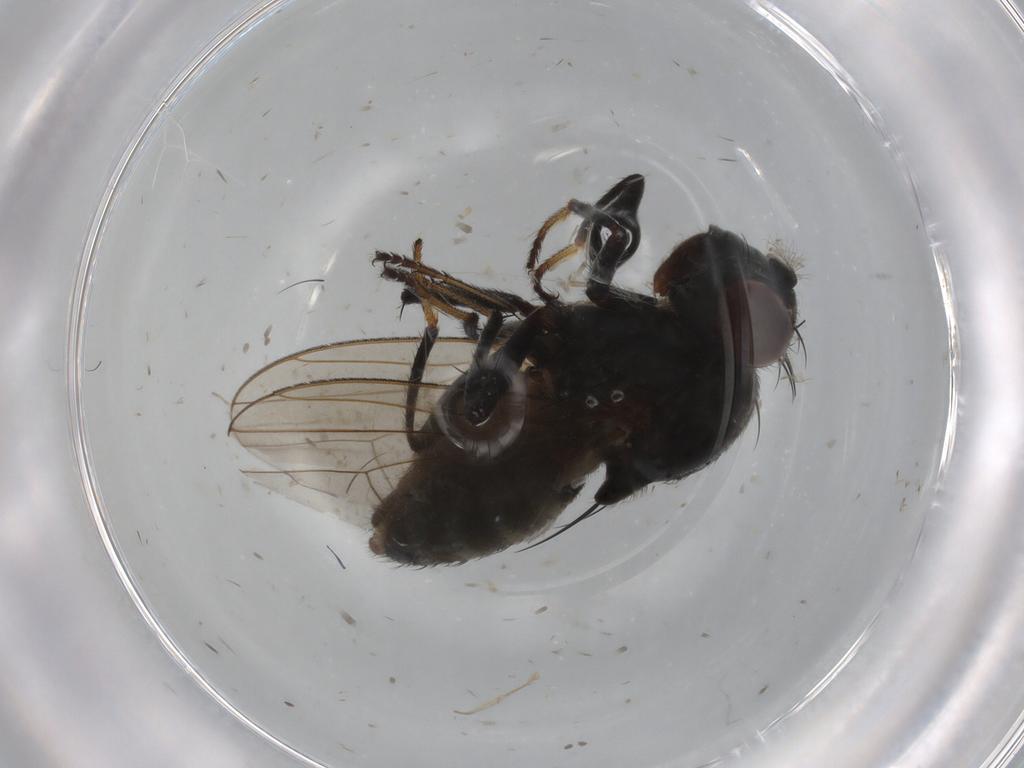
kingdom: Animalia
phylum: Arthropoda
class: Insecta
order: Diptera
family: Ephydridae
